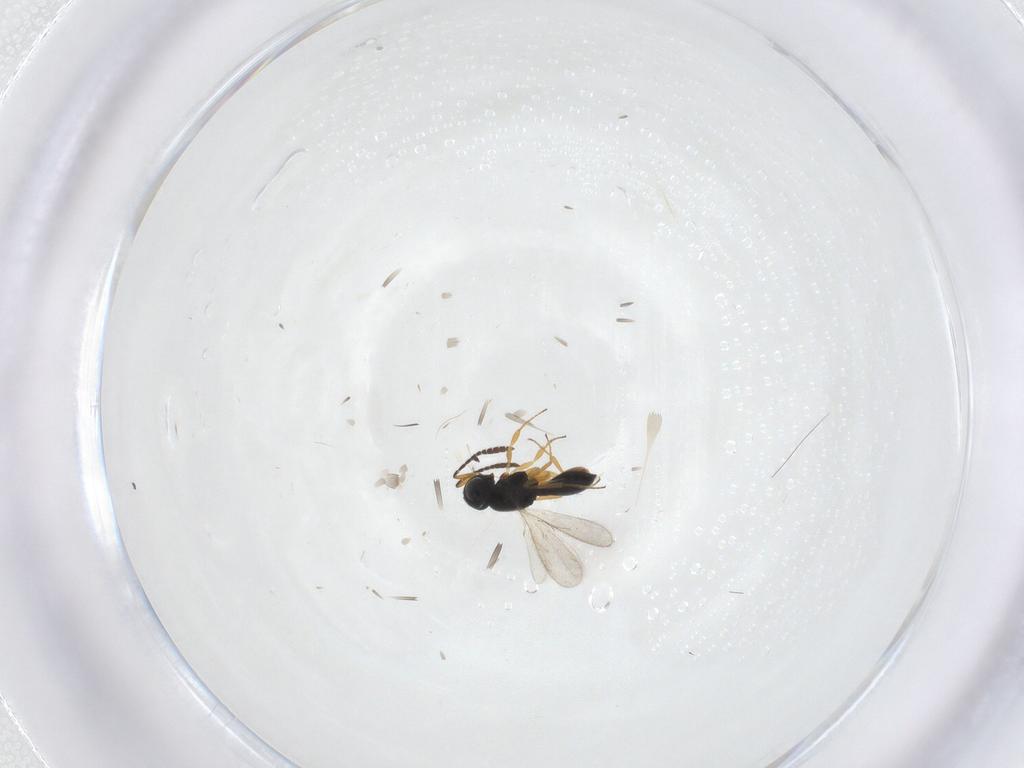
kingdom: Animalia
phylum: Arthropoda
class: Insecta
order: Hymenoptera
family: Scelionidae
